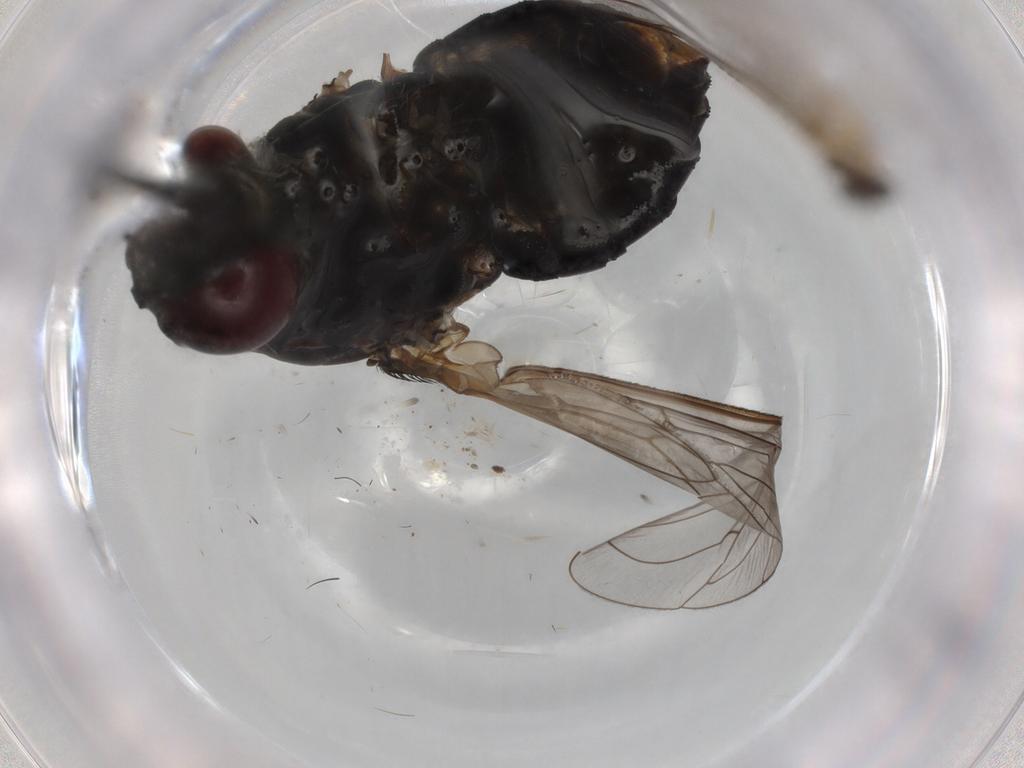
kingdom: Animalia
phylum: Arthropoda
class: Insecta
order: Diptera
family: Bombyliidae
